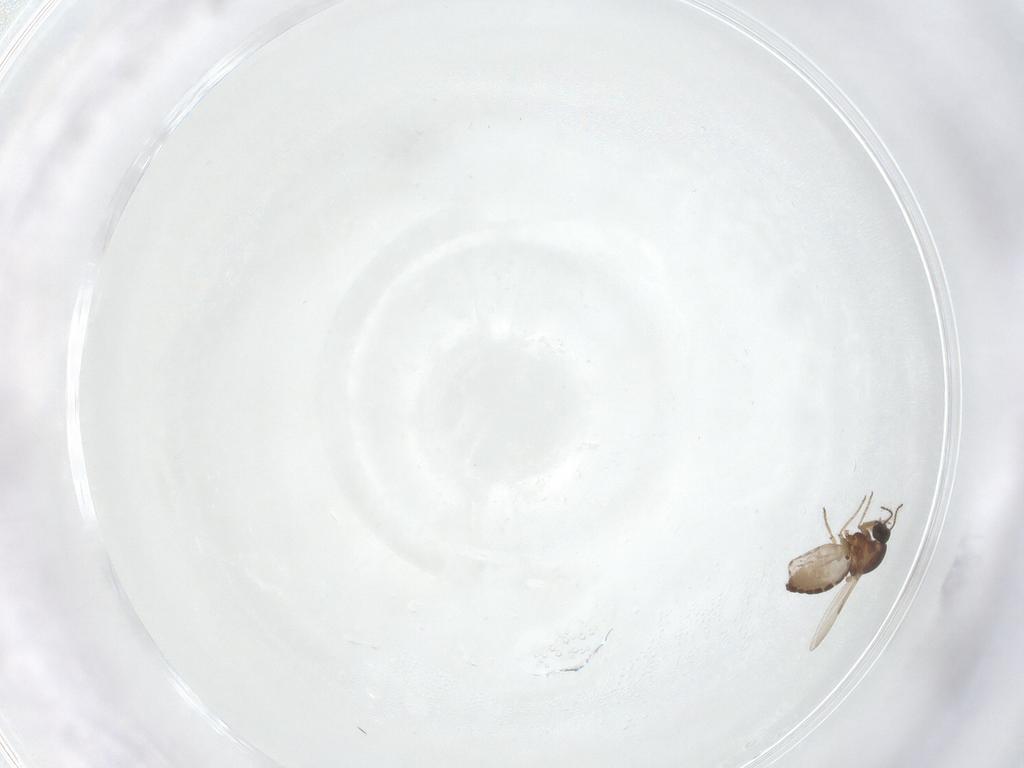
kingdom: Animalia
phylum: Arthropoda
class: Insecta
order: Diptera
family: Ceratopogonidae
